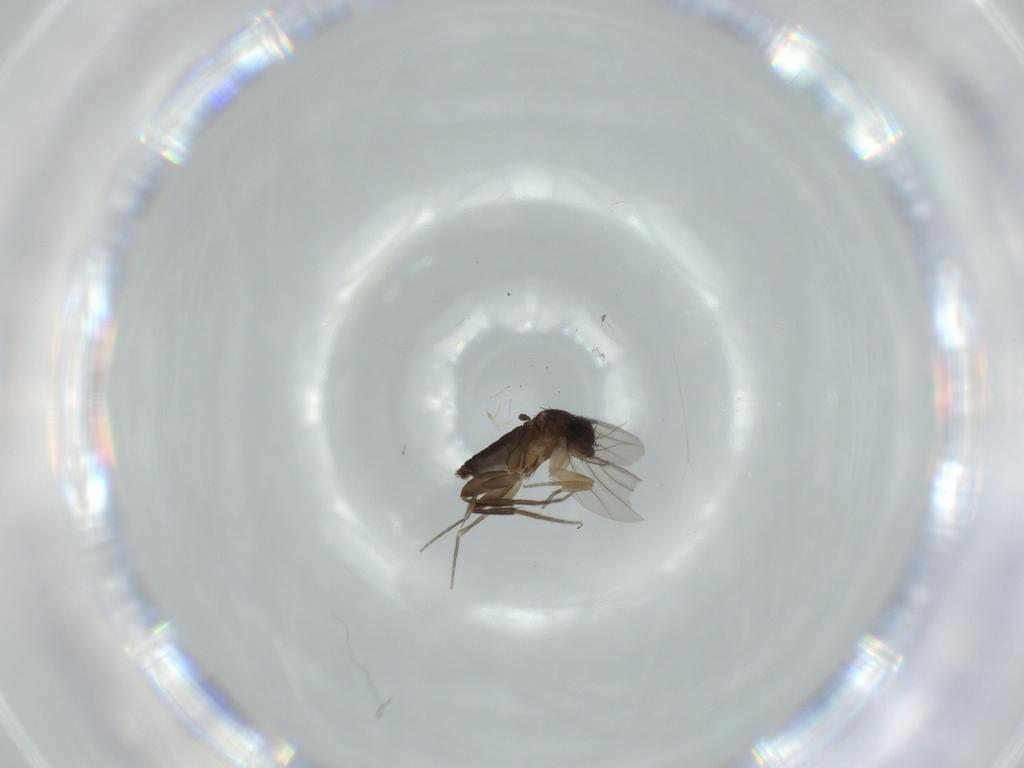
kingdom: Animalia
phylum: Arthropoda
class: Insecta
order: Diptera
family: Phoridae
